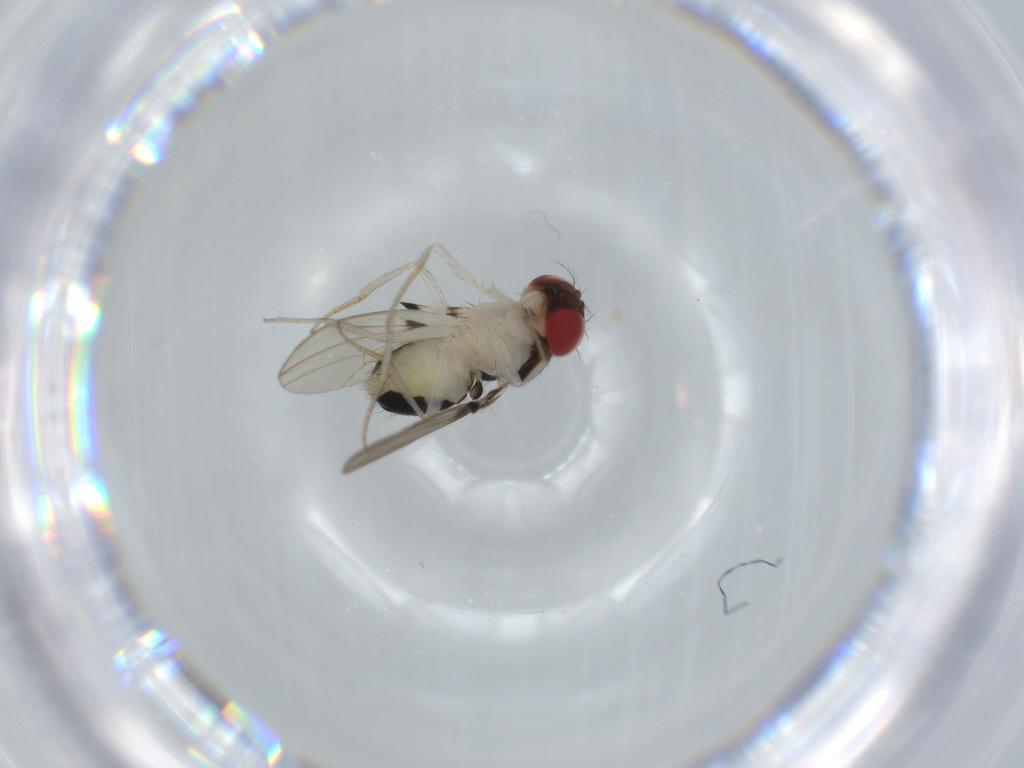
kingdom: Animalia
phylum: Arthropoda
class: Insecta
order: Diptera
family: Drosophilidae
